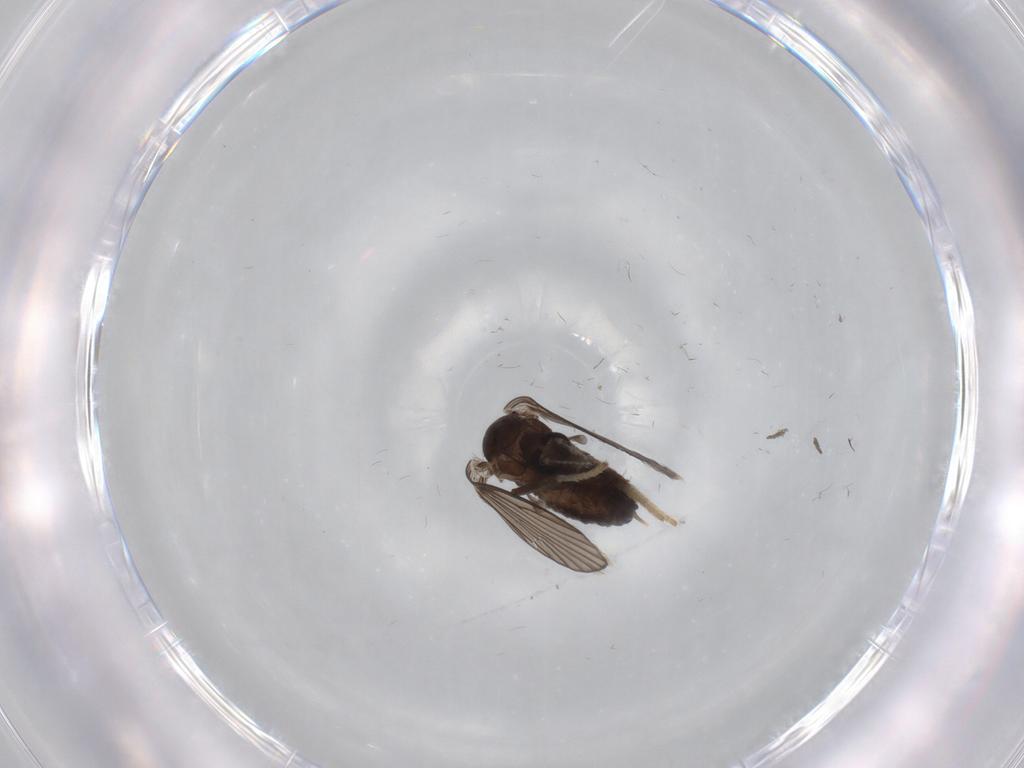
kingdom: Animalia
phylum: Arthropoda
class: Insecta
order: Diptera
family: Psychodidae
